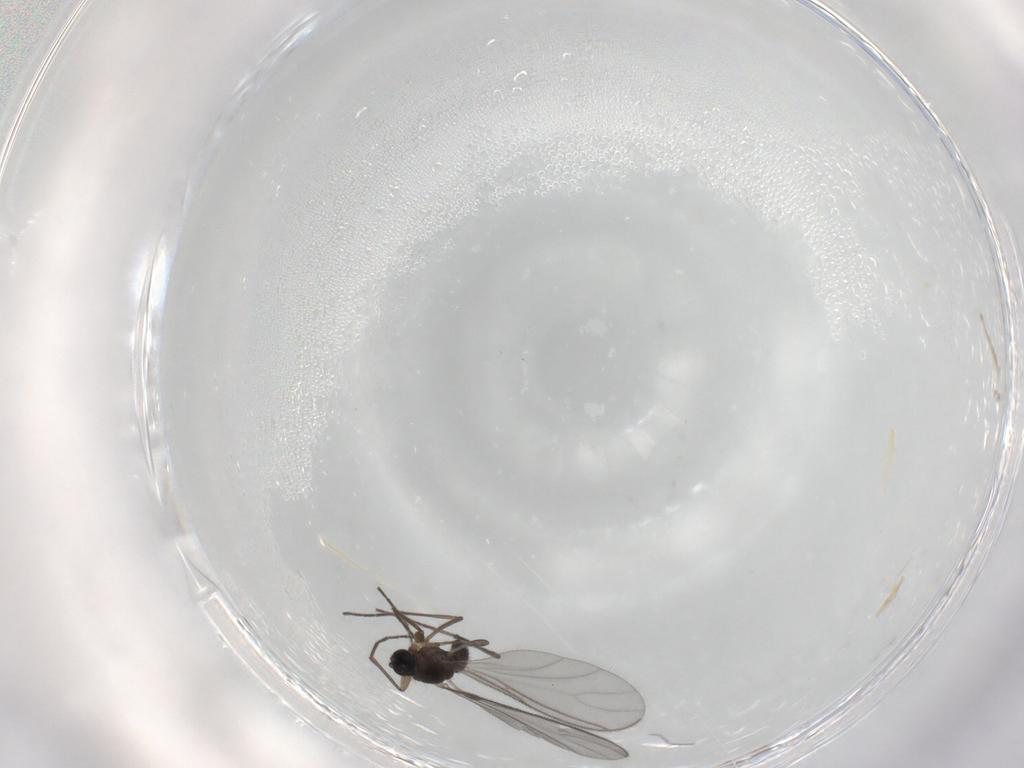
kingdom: Animalia
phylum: Arthropoda
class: Insecta
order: Diptera
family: Sciaridae
